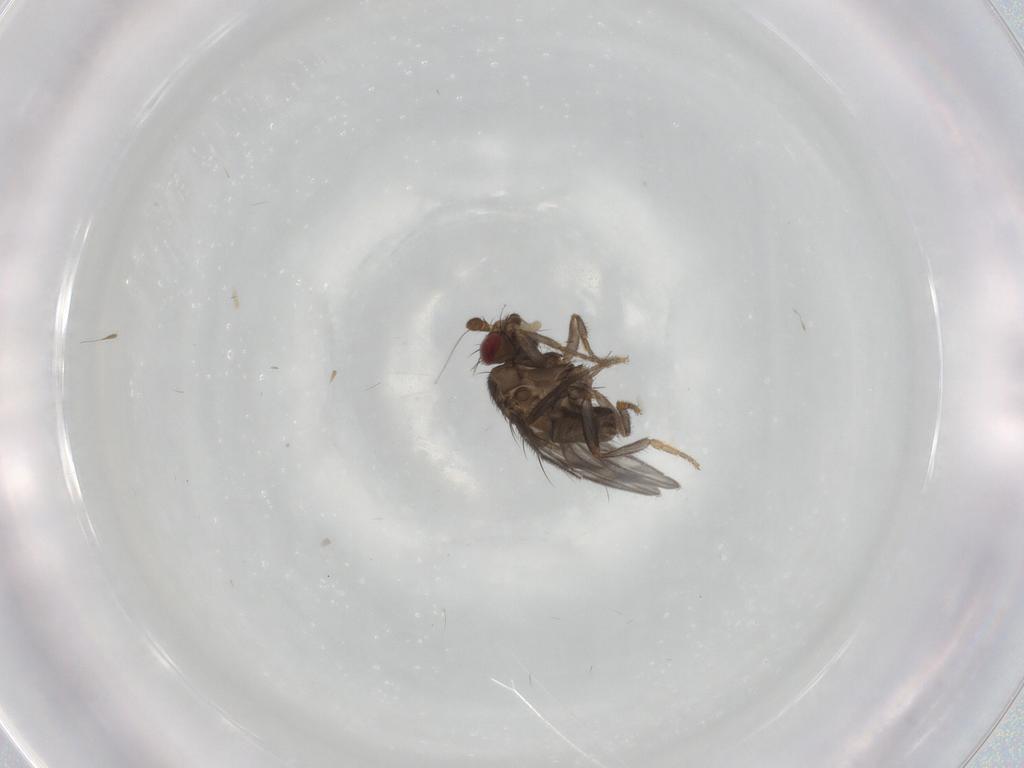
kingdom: Animalia
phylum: Arthropoda
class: Insecta
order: Diptera
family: Sphaeroceridae
